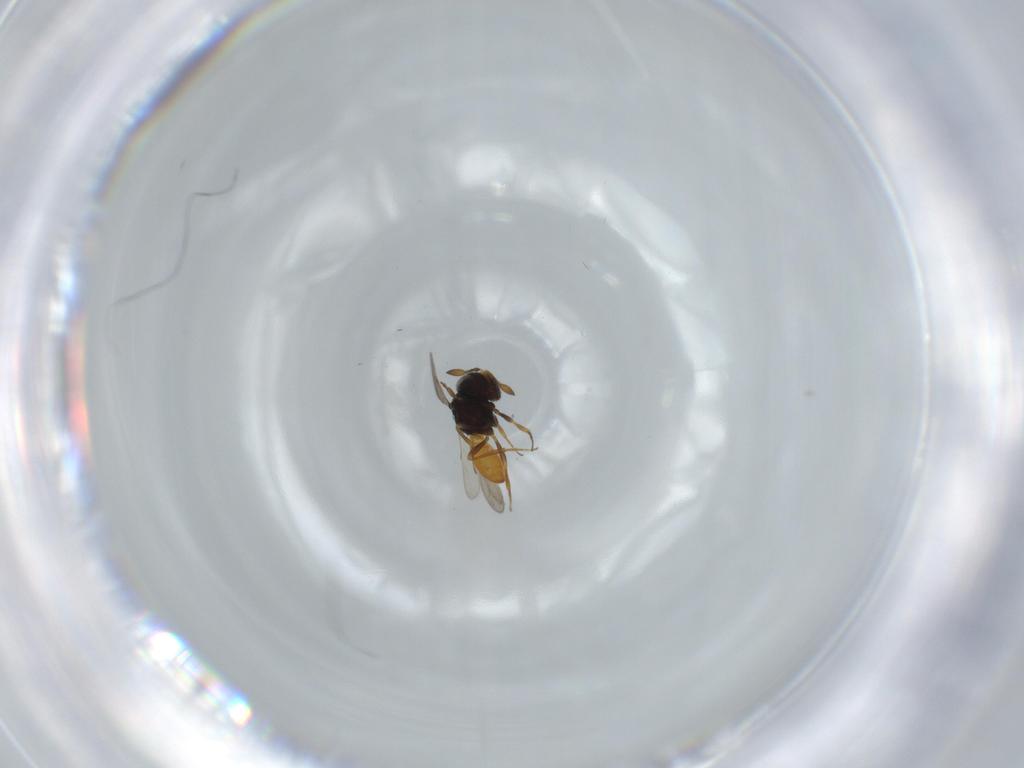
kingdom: Animalia
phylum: Arthropoda
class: Insecta
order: Hymenoptera
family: Scelionidae
